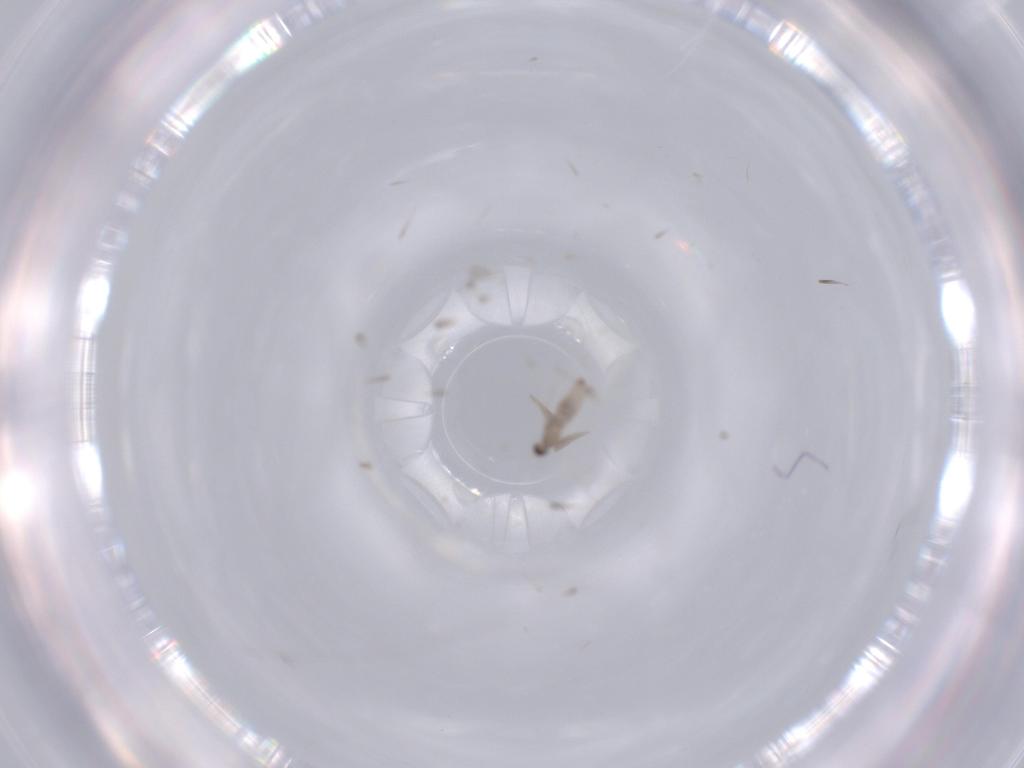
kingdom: Animalia
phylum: Arthropoda
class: Insecta
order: Diptera
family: Cecidomyiidae
